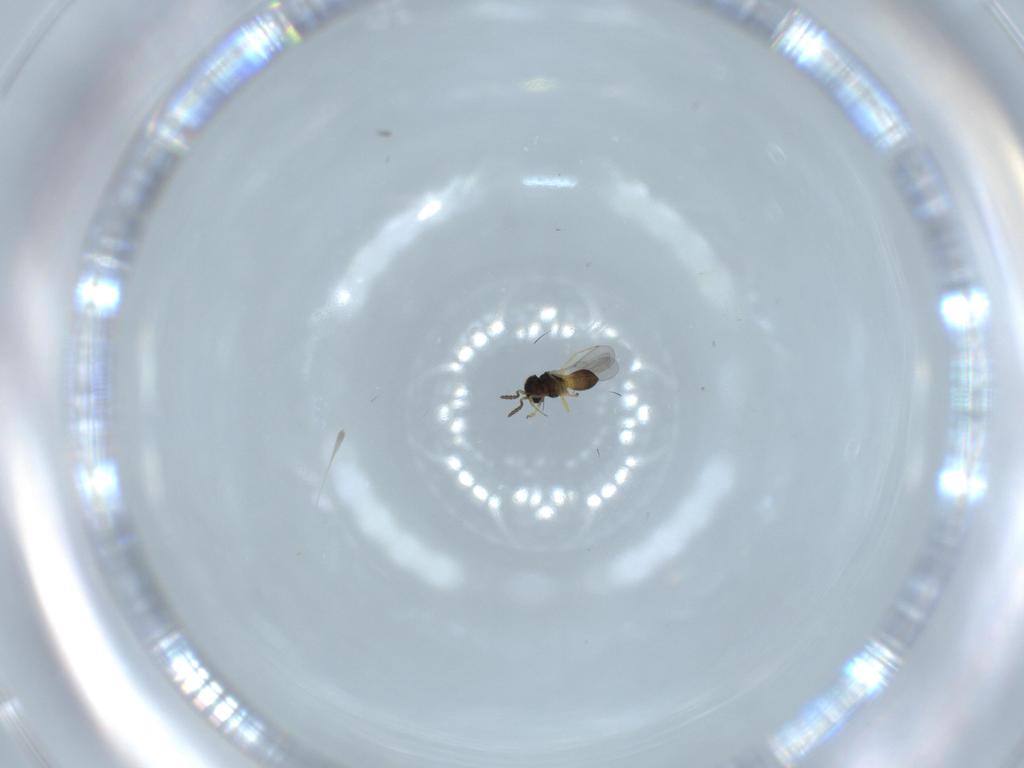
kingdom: Animalia
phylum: Arthropoda
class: Insecta
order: Hymenoptera
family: Scelionidae
